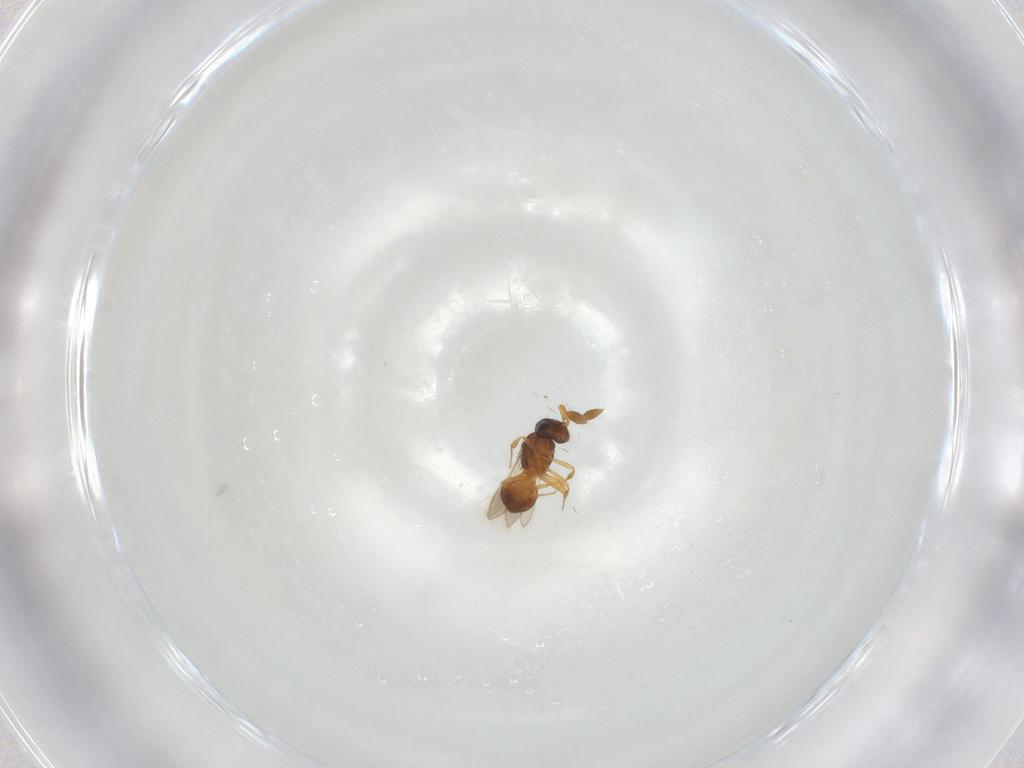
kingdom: Animalia
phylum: Arthropoda
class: Insecta
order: Hymenoptera
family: Scelionidae
